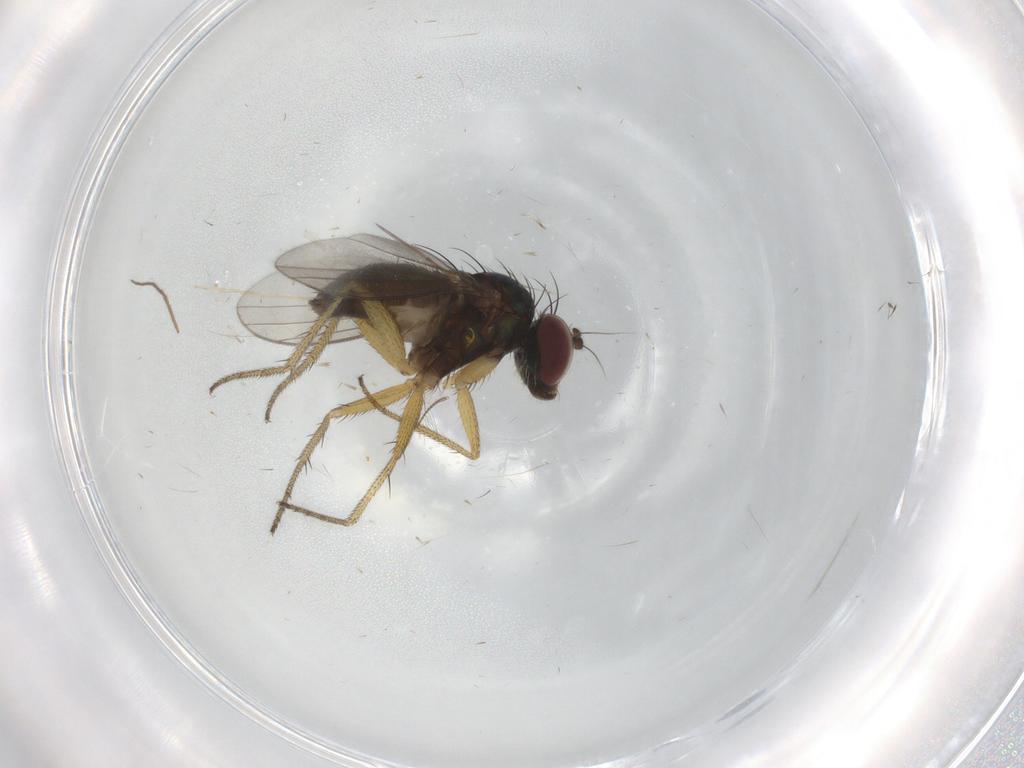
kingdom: Animalia
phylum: Arthropoda
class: Insecta
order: Diptera
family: Dolichopodidae
